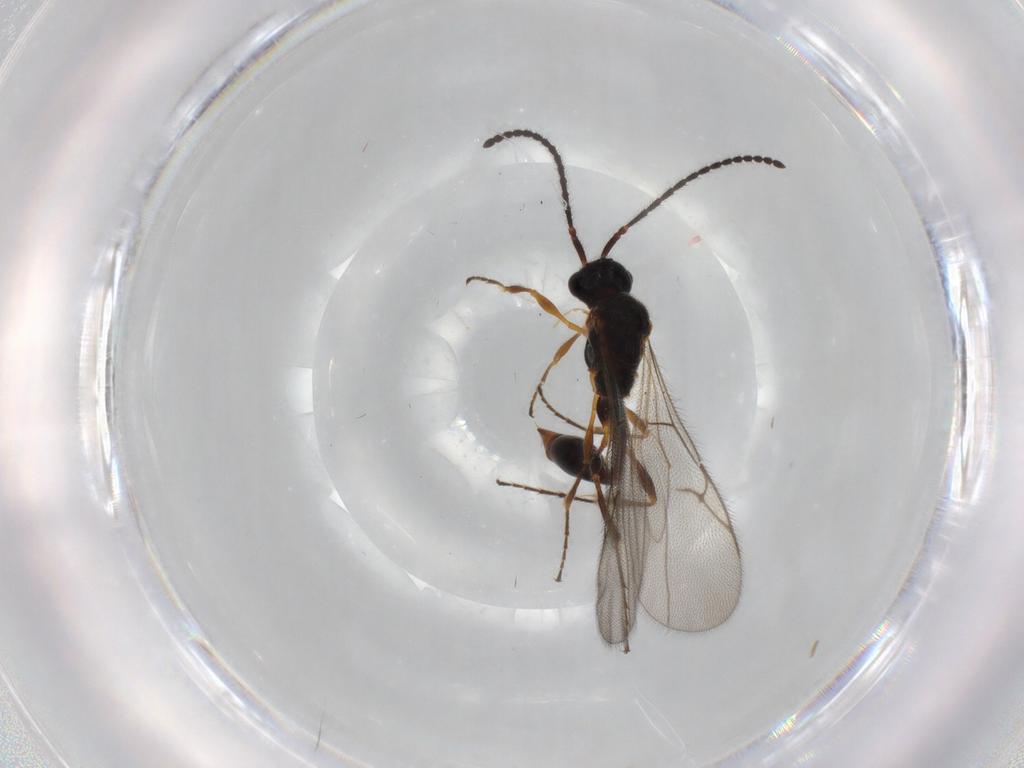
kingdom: Animalia
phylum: Arthropoda
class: Insecta
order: Hymenoptera
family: Diapriidae
